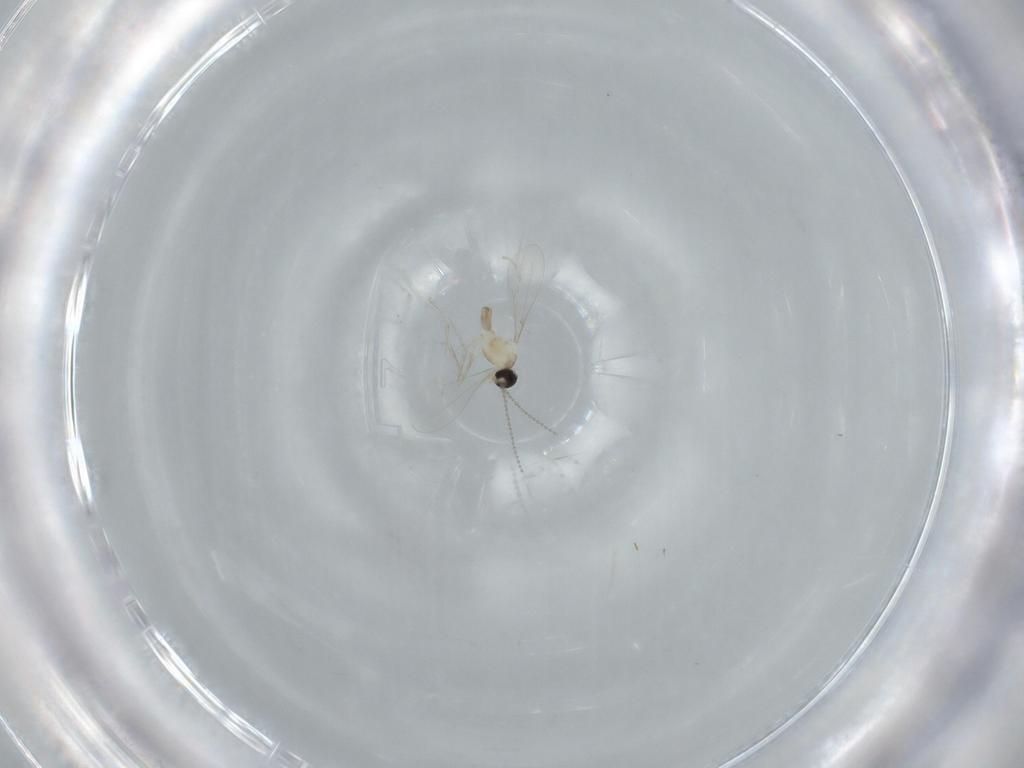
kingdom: Animalia
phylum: Arthropoda
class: Insecta
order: Diptera
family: Cecidomyiidae
